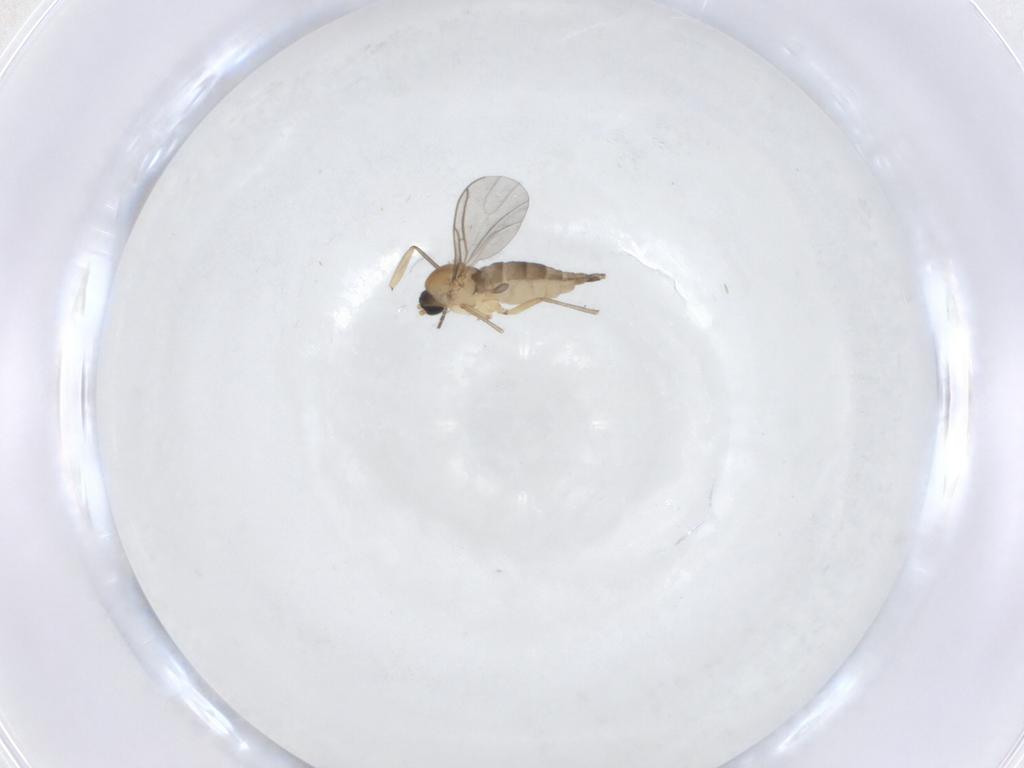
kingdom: Animalia
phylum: Arthropoda
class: Insecta
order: Diptera
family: Sciaridae
